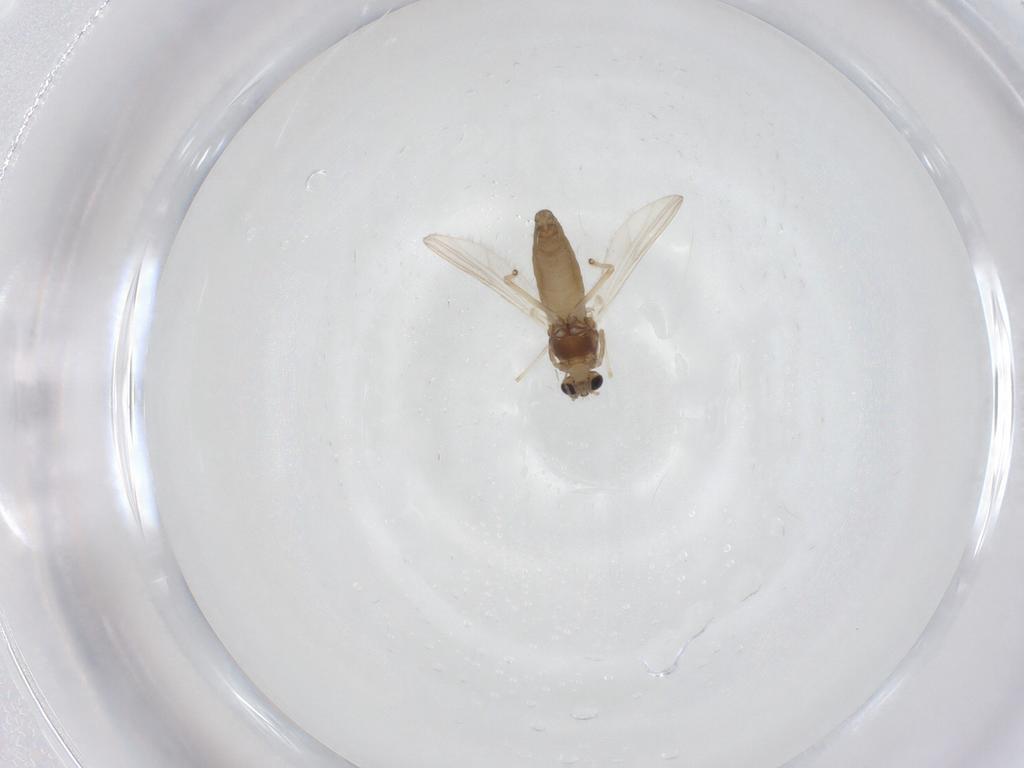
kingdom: Animalia
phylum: Arthropoda
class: Insecta
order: Diptera
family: Chironomidae
